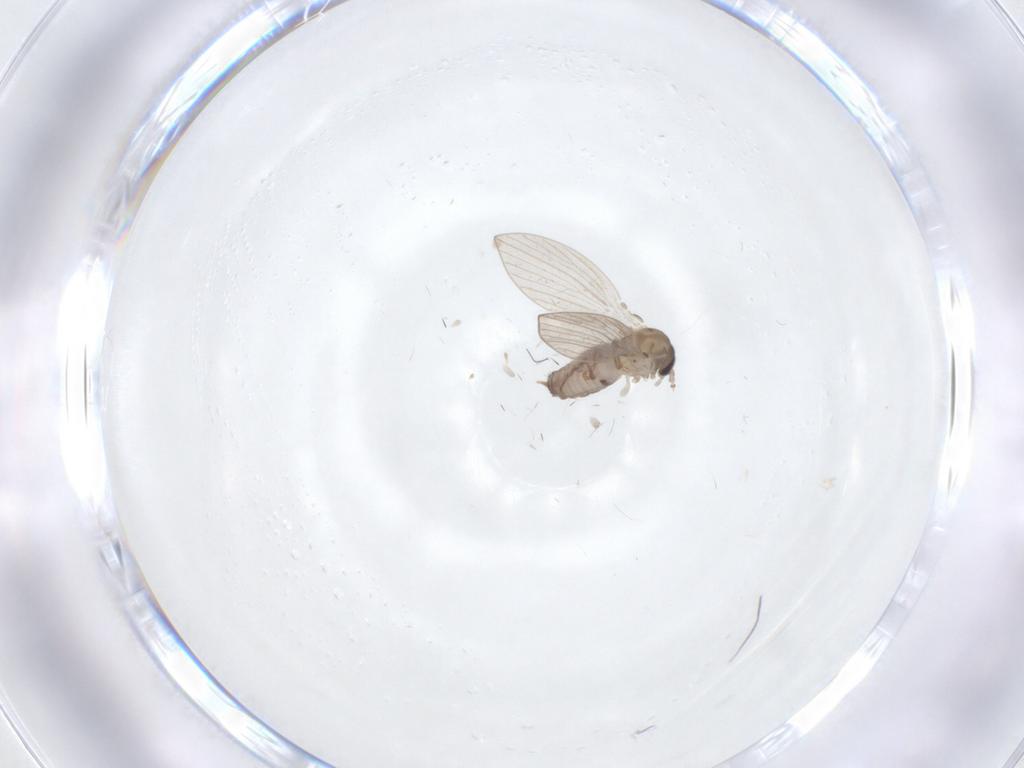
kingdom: Animalia
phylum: Arthropoda
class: Insecta
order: Diptera
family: Psychodidae
